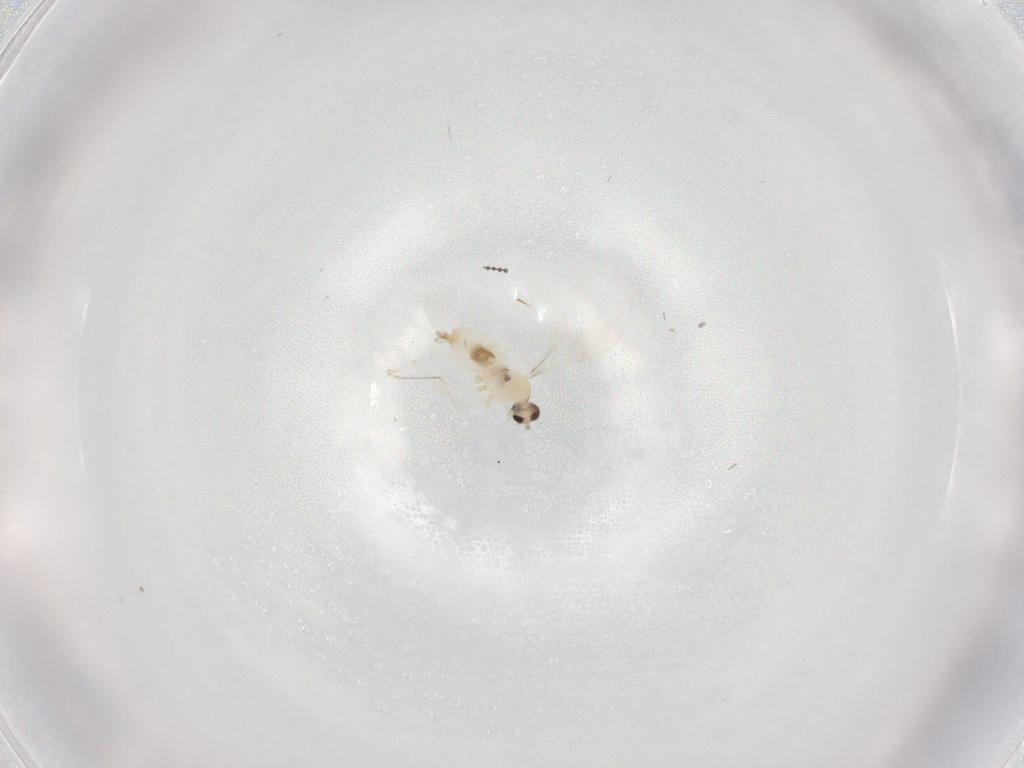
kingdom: Animalia
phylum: Arthropoda
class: Insecta
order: Diptera
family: Cecidomyiidae
